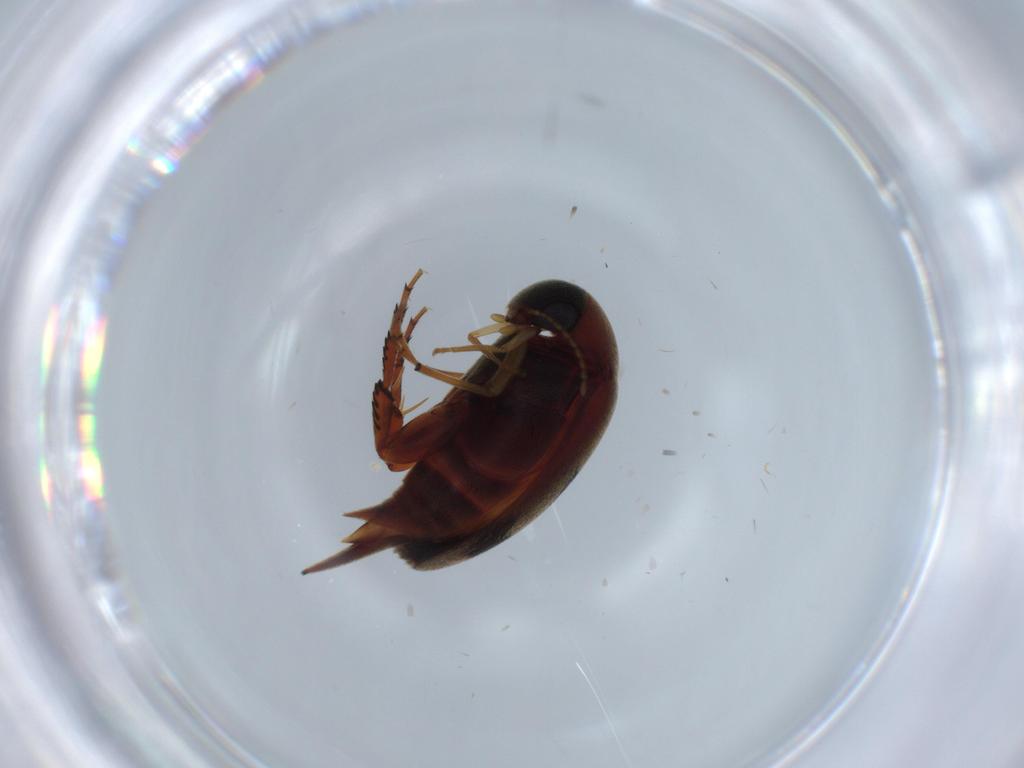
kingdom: Animalia
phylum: Arthropoda
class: Insecta
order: Coleoptera
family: Mordellidae
